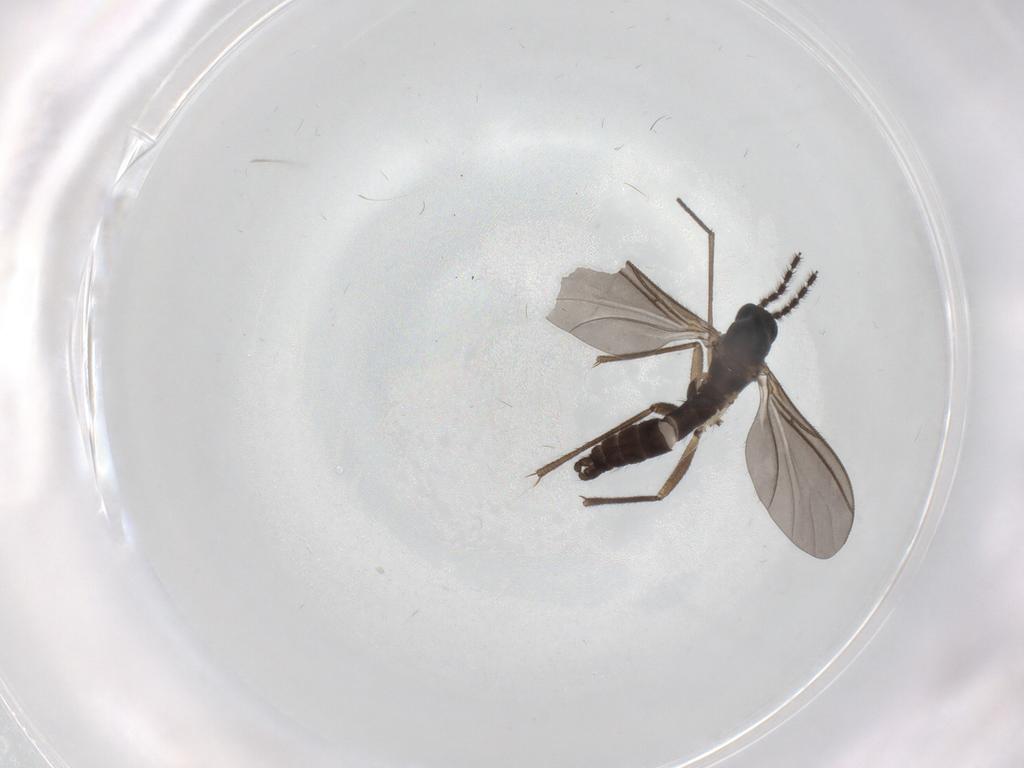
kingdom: Animalia
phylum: Arthropoda
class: Insecta
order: Diptera
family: Sciaridae
